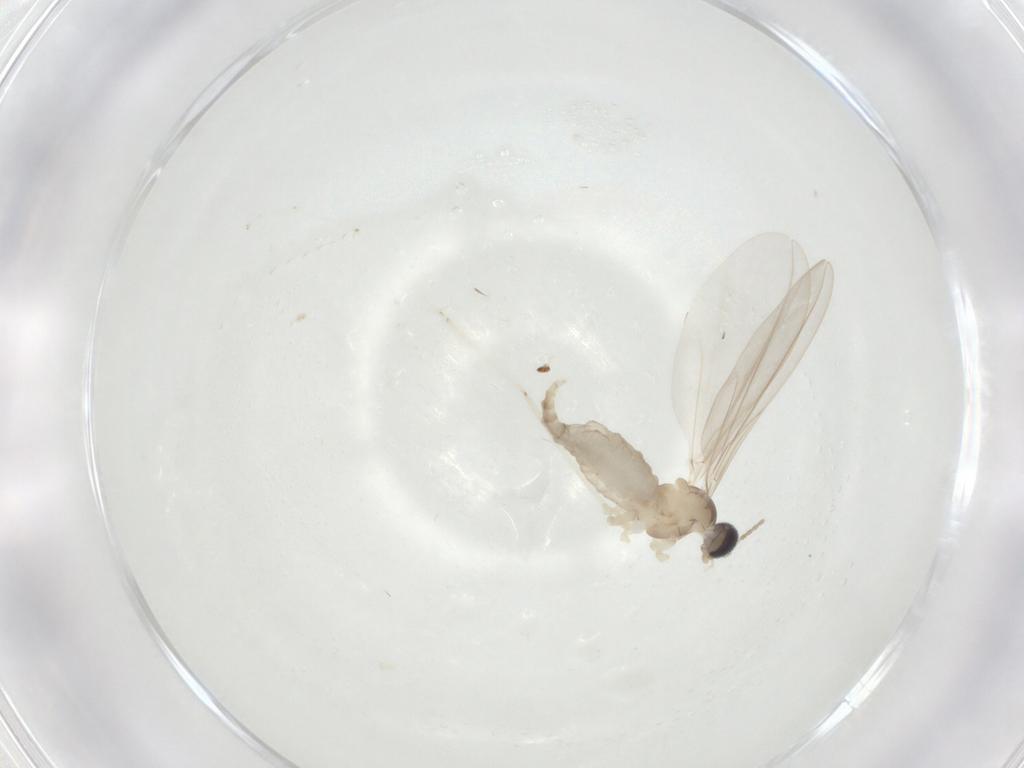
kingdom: Animalia
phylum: Arthropoda
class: Insecta
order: Diptera
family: Cecidomyiidae
